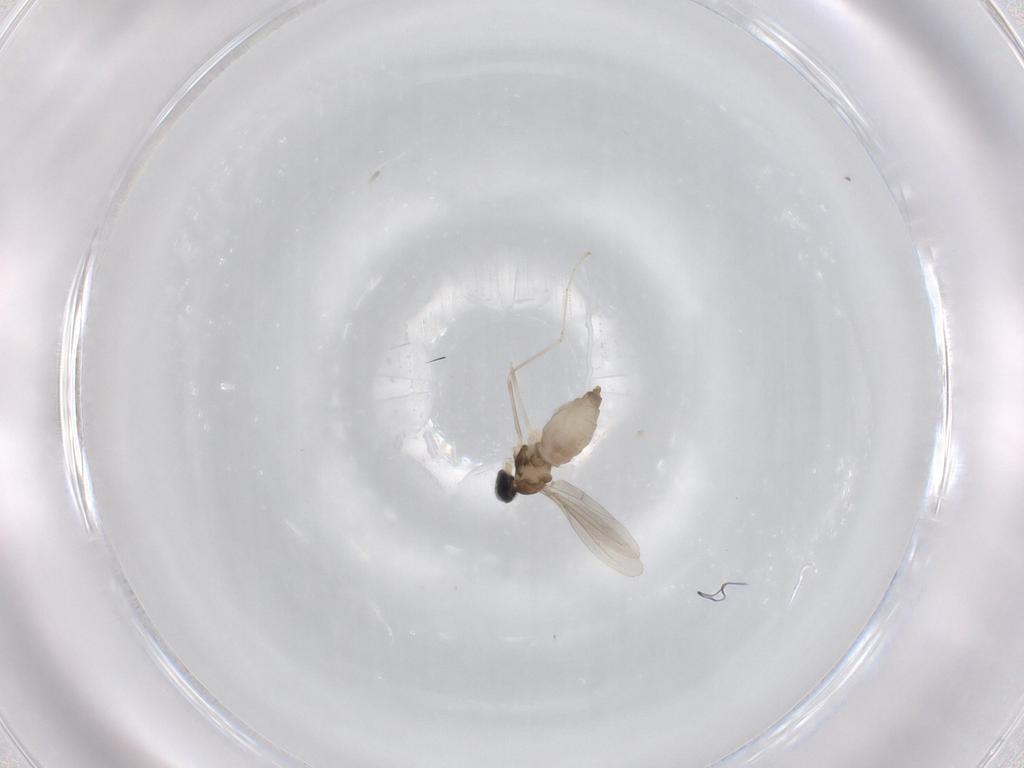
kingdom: Animalia
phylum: Arthropoda
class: Insecta
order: Diptera
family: Cecidomyiidae
